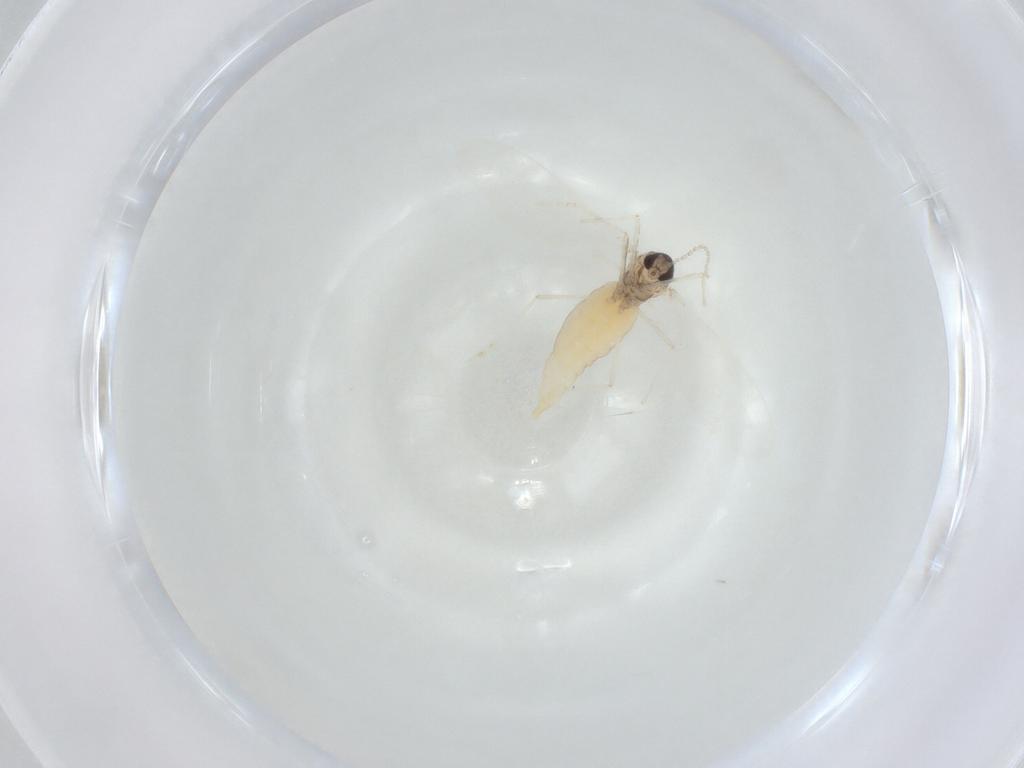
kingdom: Animalia
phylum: Arthropoda
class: Insecta
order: Diptera
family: Cecidomyiidae
